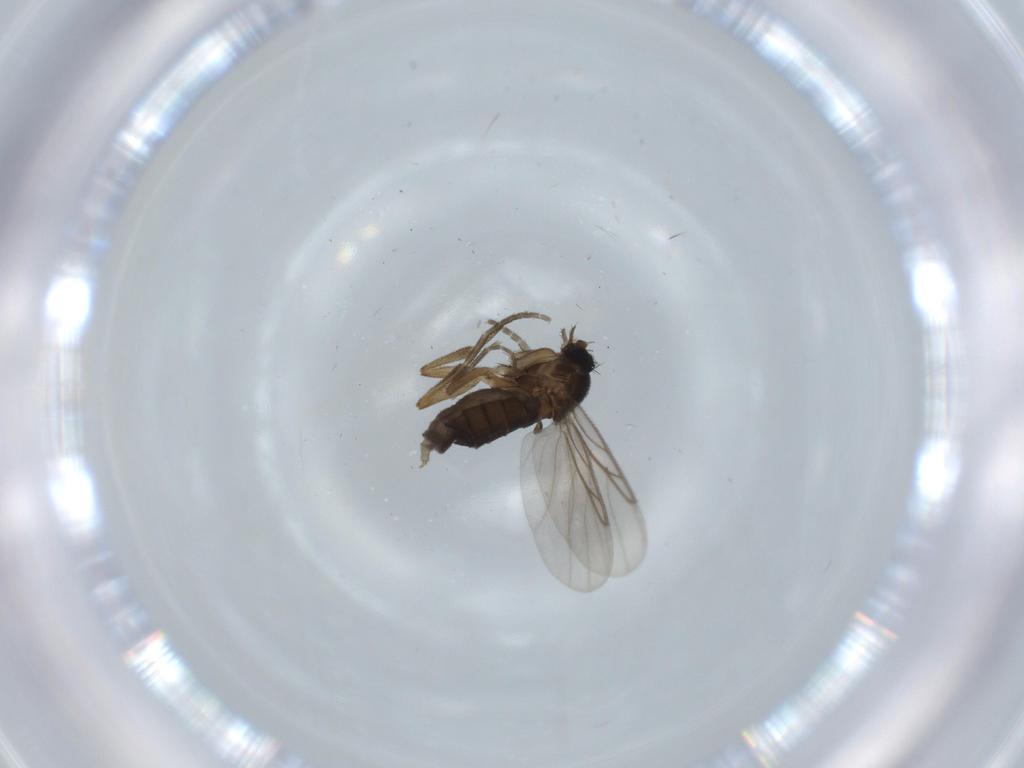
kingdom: Animalia
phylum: Arthropoda
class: Insecta
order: Diptera
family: Phoridae
